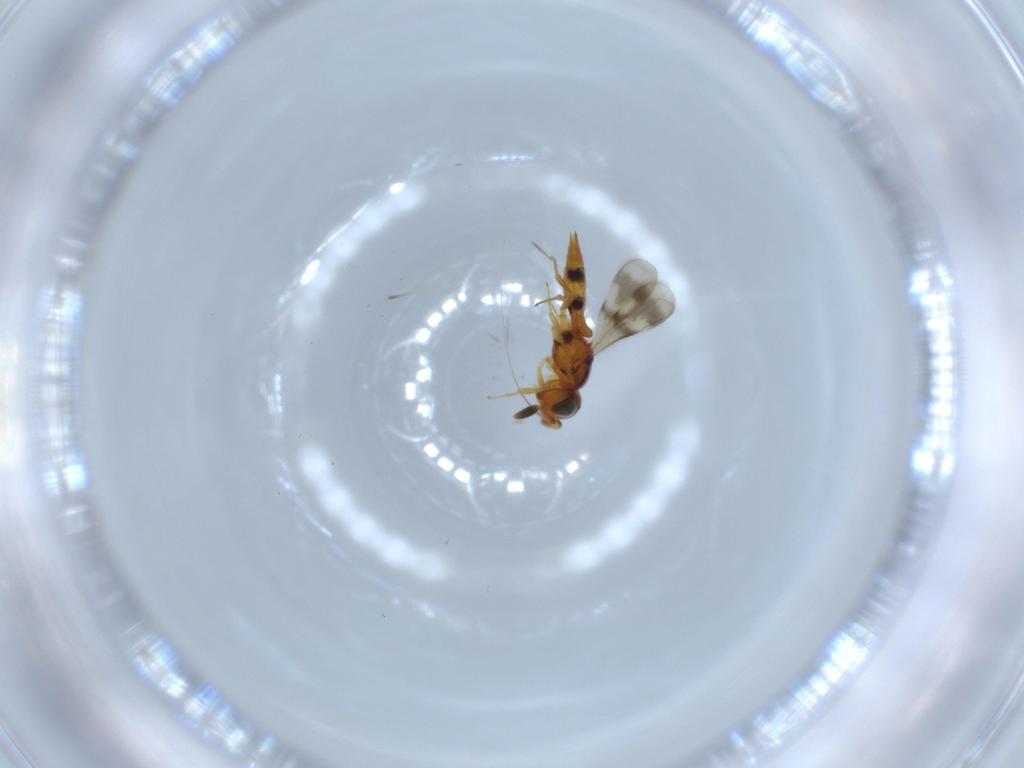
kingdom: Animalia
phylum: Arthropoda
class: Insecta
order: Hymenoptera
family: Scelionidae
